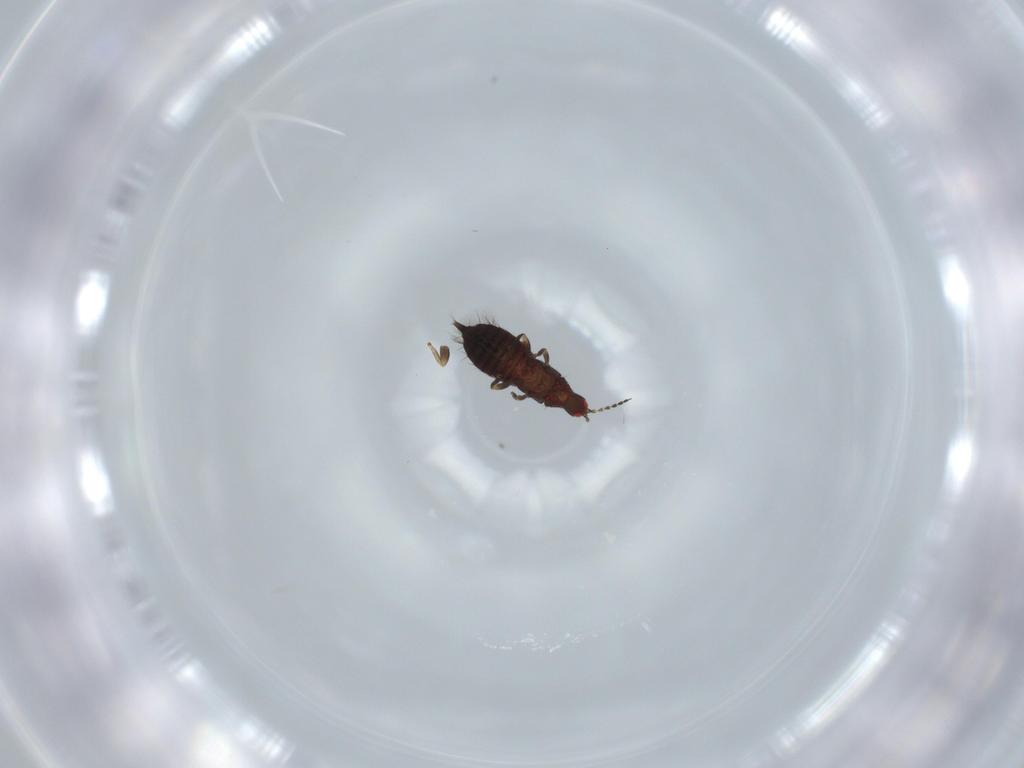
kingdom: Animalia
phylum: Arthropoda
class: Insecta
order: Thysanoptera
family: Phlaeothripidae
